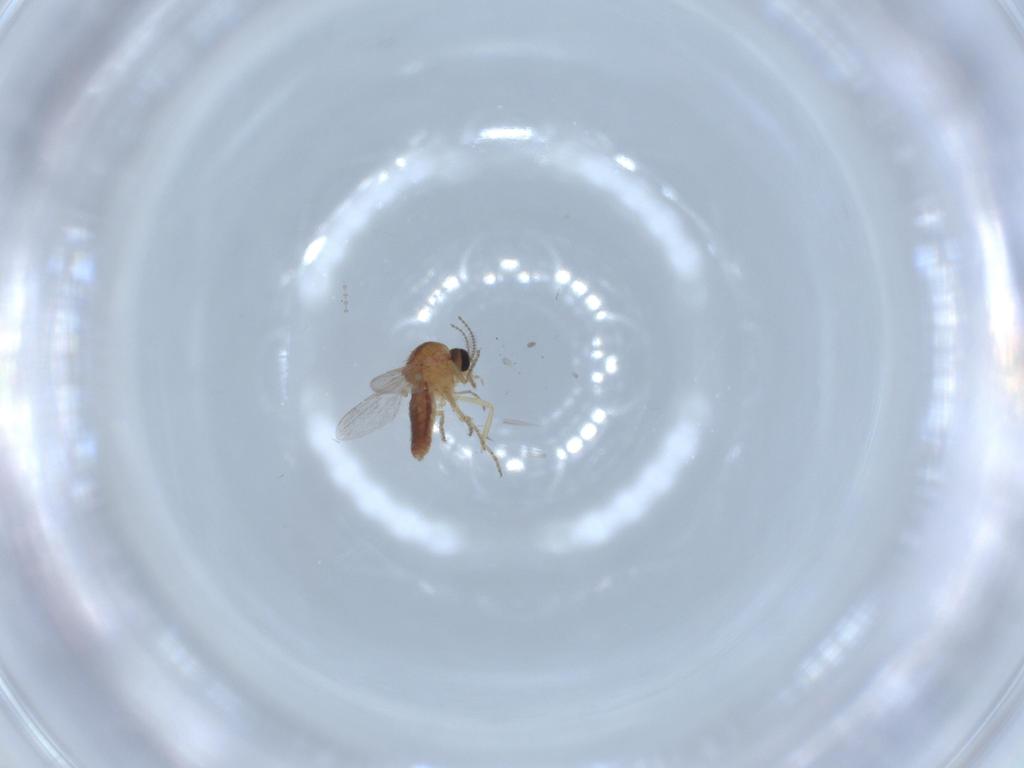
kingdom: Animalia
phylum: Arthropoda
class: Insecta
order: Diptera
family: Ceratopogonidae
